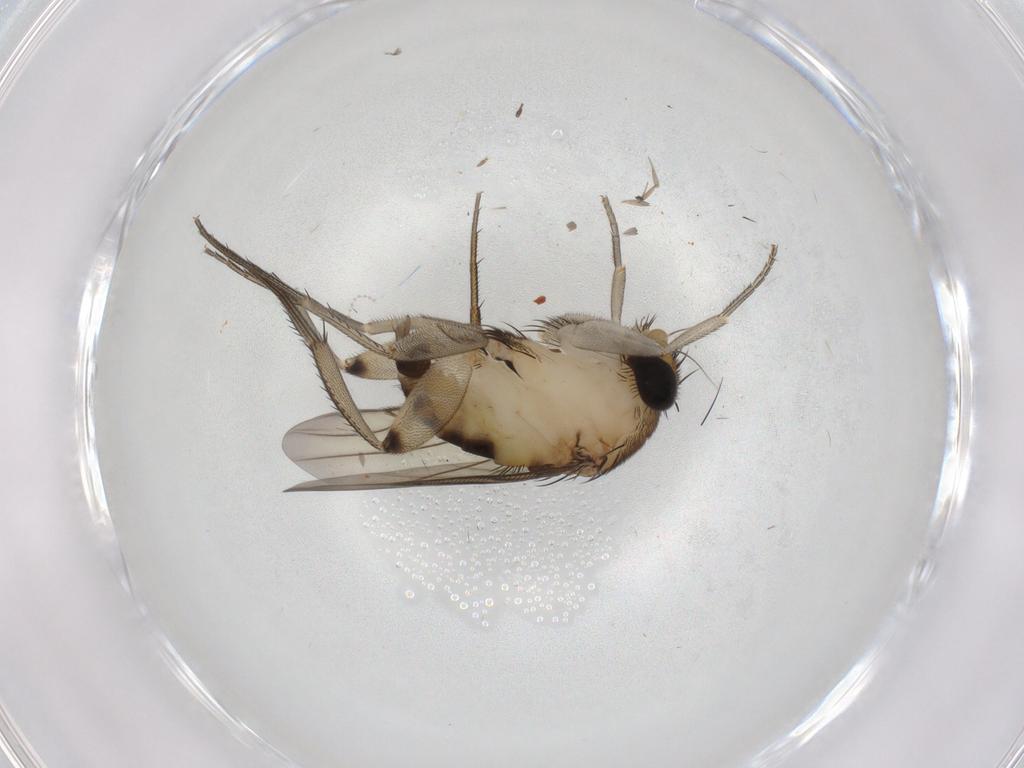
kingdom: Animalia
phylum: Arthropoda
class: Insecta
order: Diptera
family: Phoridae
